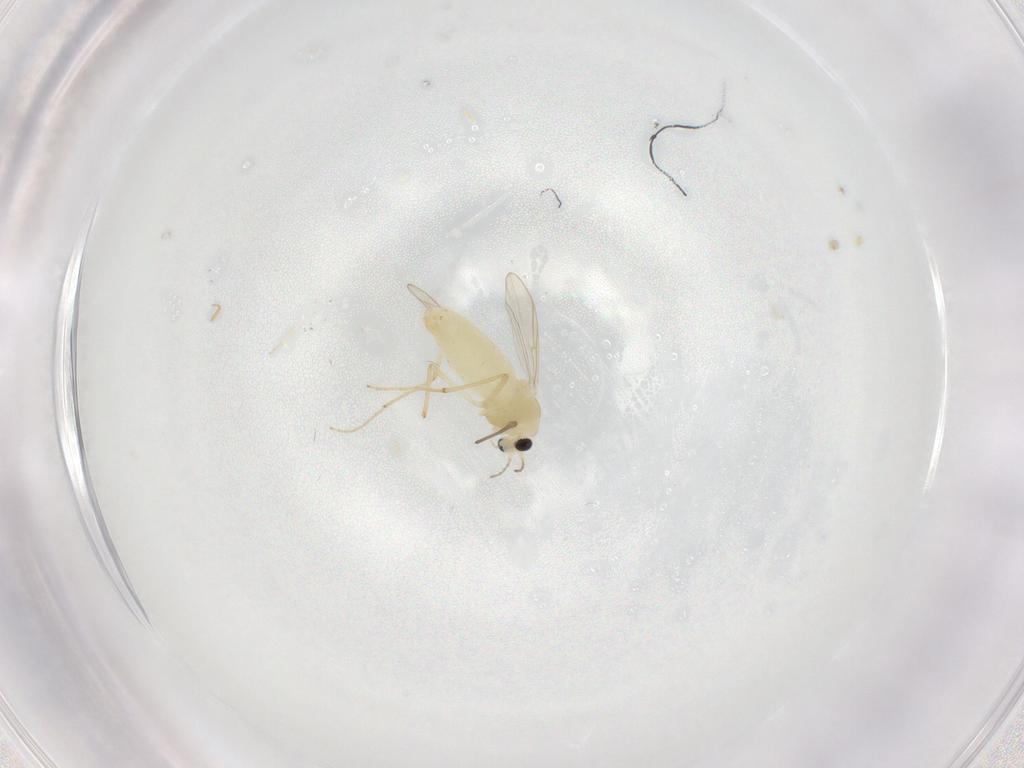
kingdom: Animalia
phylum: Arthropoda
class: Insecta
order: Diptera
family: Chironomidae
